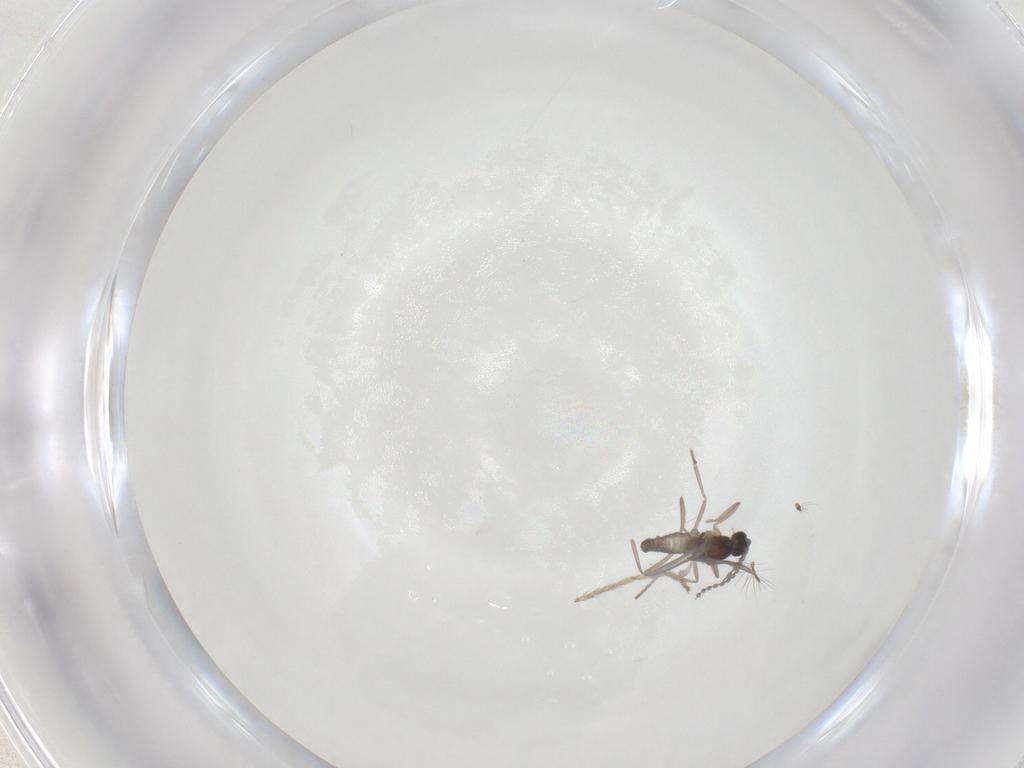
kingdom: Animalia
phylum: Arthropoda
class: Insecta
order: Diptera
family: Cecidomyiidae
